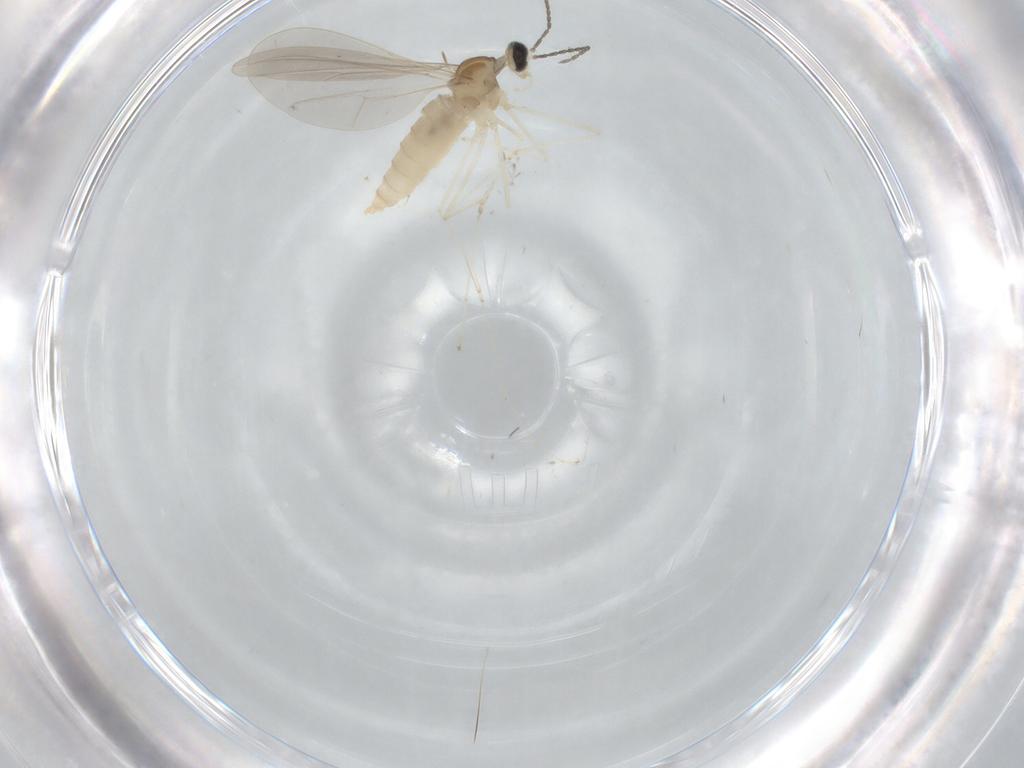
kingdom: Animalia
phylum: Arthropoda
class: Insecta
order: Diptera
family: Cecidomyiidae
